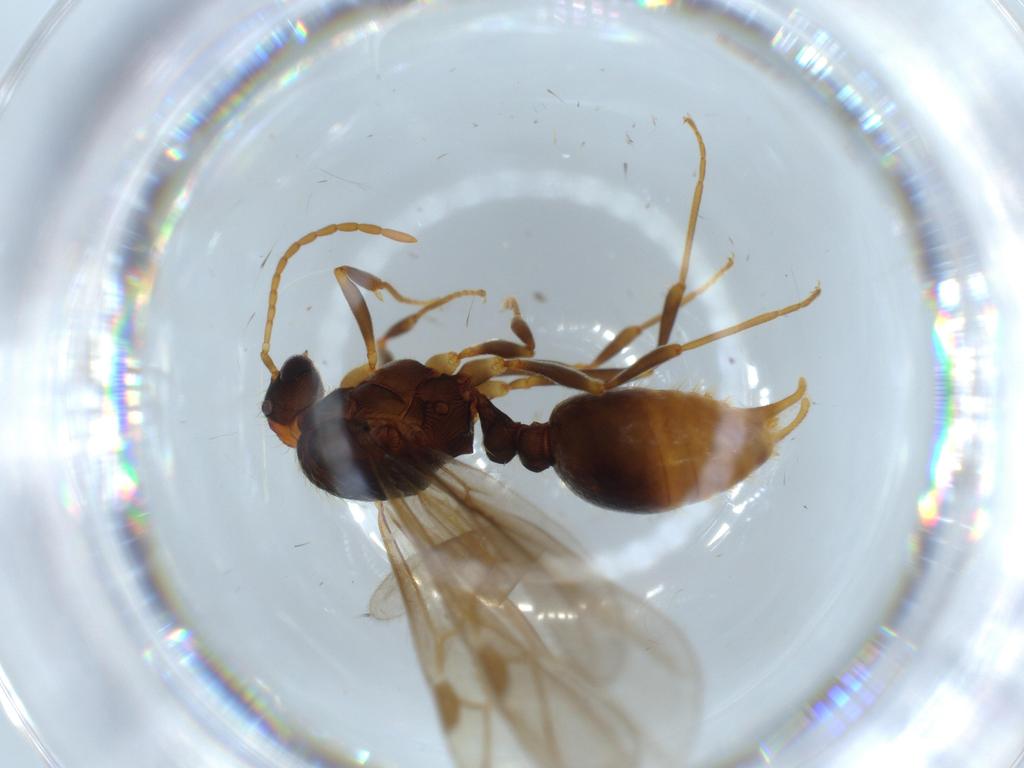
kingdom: Animalia
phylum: Arthropoda
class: Insecta
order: Hymenoptera
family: Formicidae
